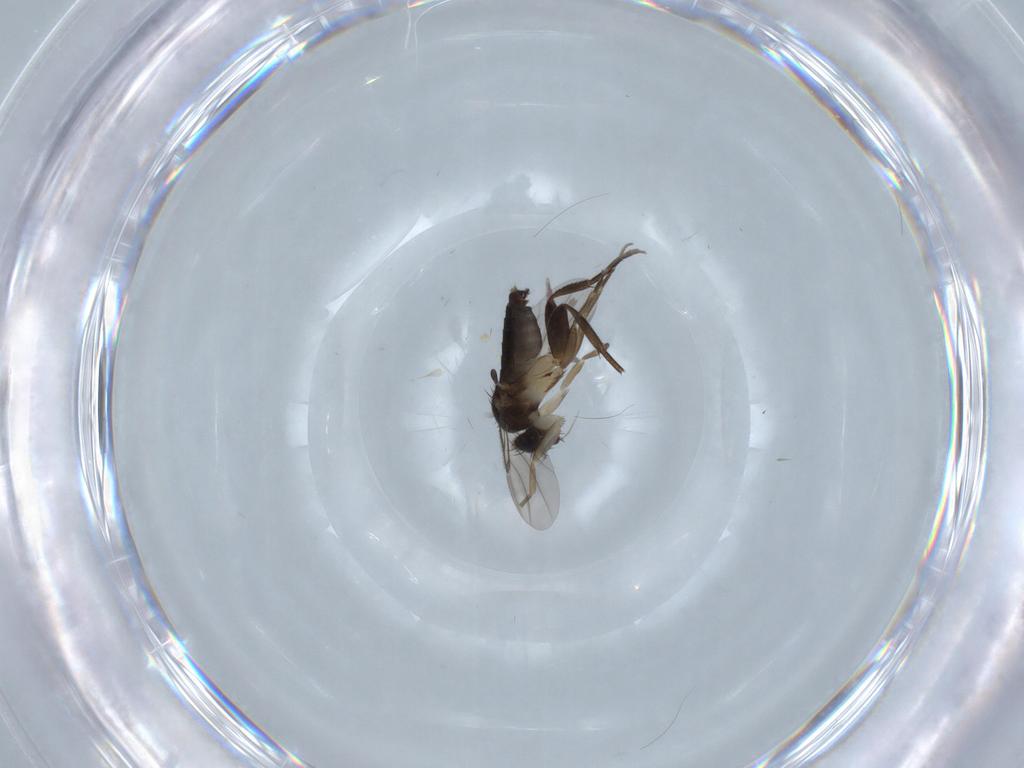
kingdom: Animalia
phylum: Arthropoda
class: Insecta
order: Diptera
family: Phoridae
